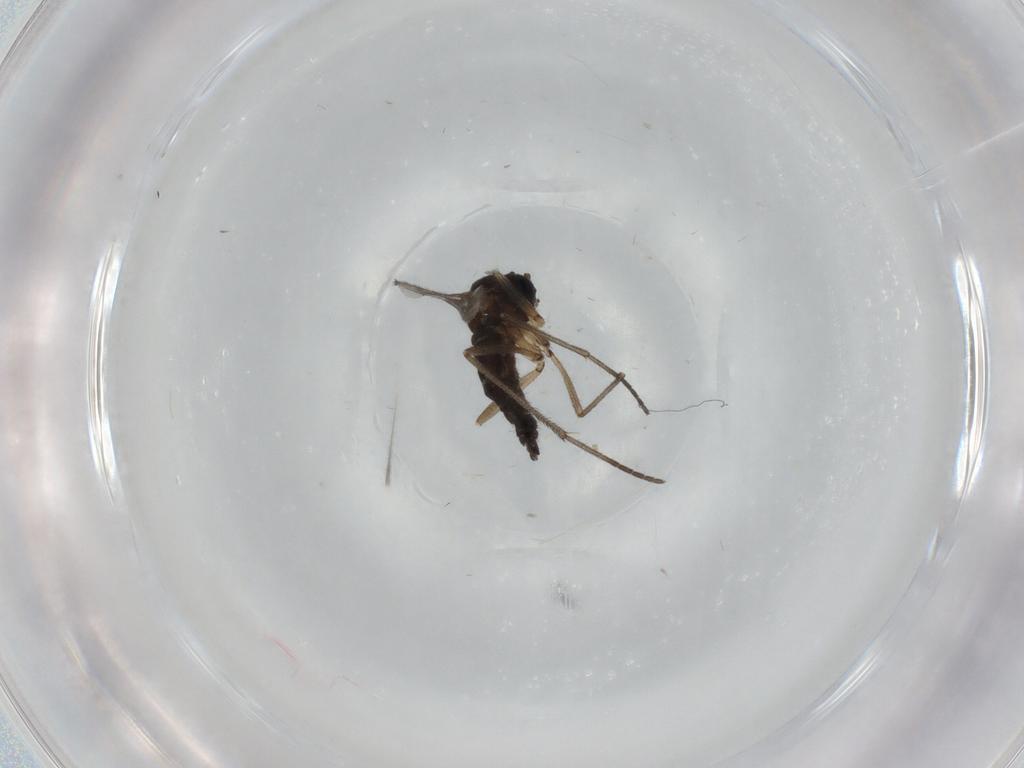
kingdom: Animalia
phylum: Arthropoda
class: Insecta
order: Diptera
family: Sciaridae
